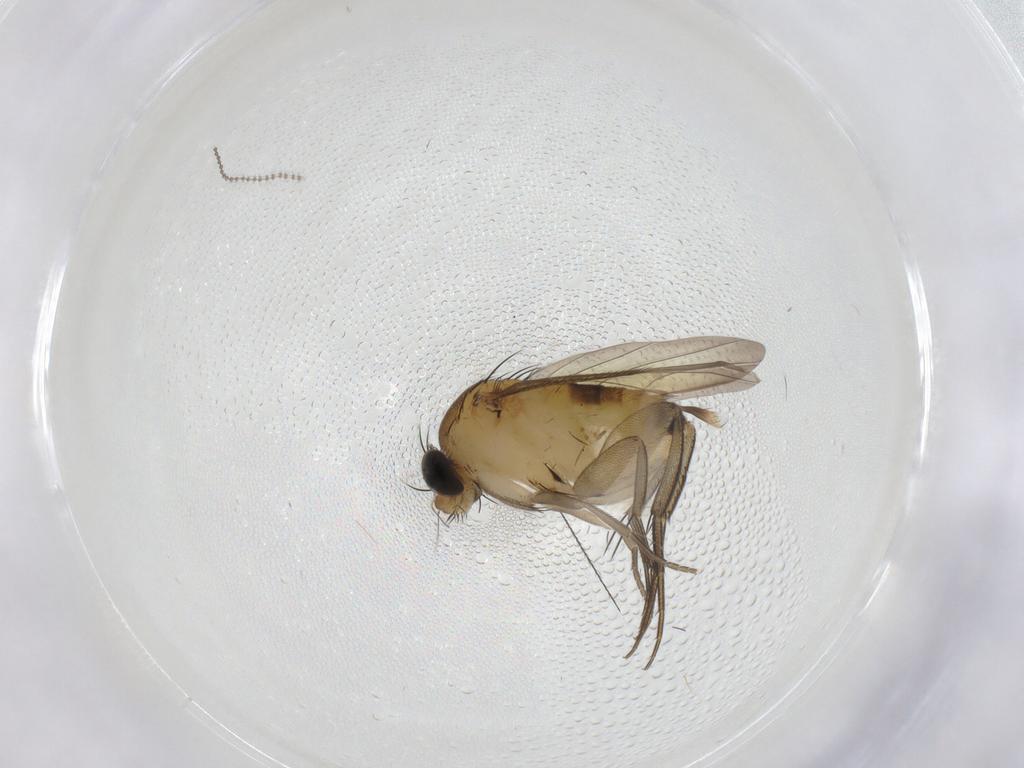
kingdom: Animalia
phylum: Arthropoda
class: Insecta
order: Diptera
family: Phoridae
